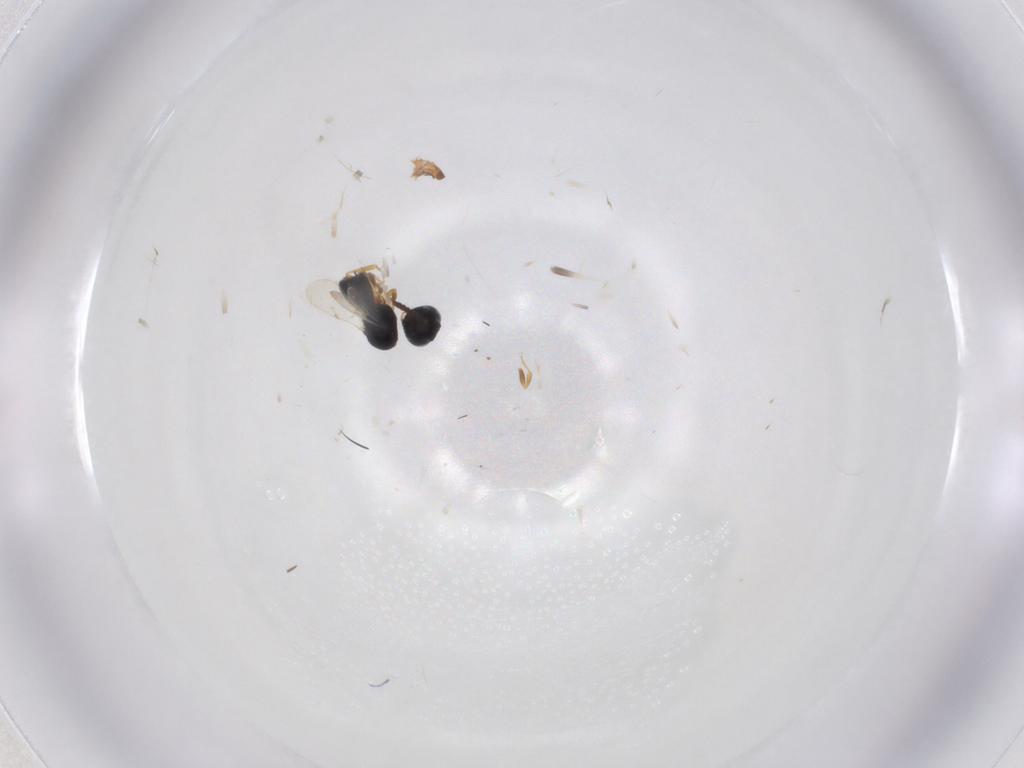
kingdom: Animalia
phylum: Arthropoda
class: Insecta
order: Hymenoptera
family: Scelionidae
